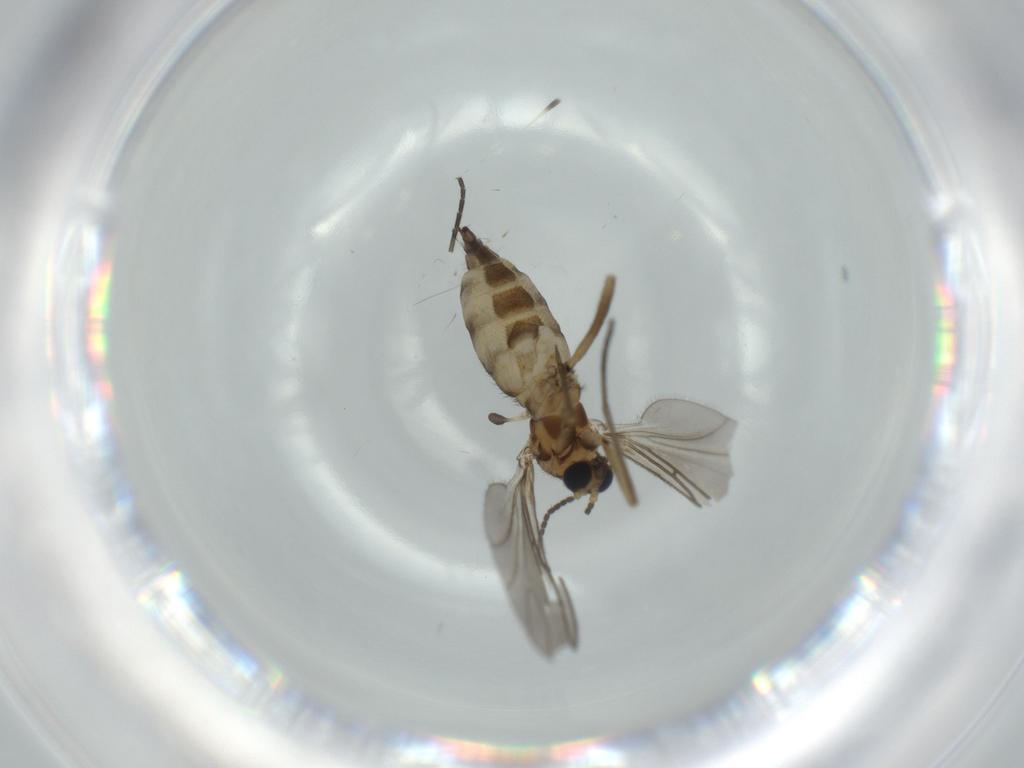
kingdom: Animalia
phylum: Arthropoda
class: Insecta
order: Diptera
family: Sciaridae
